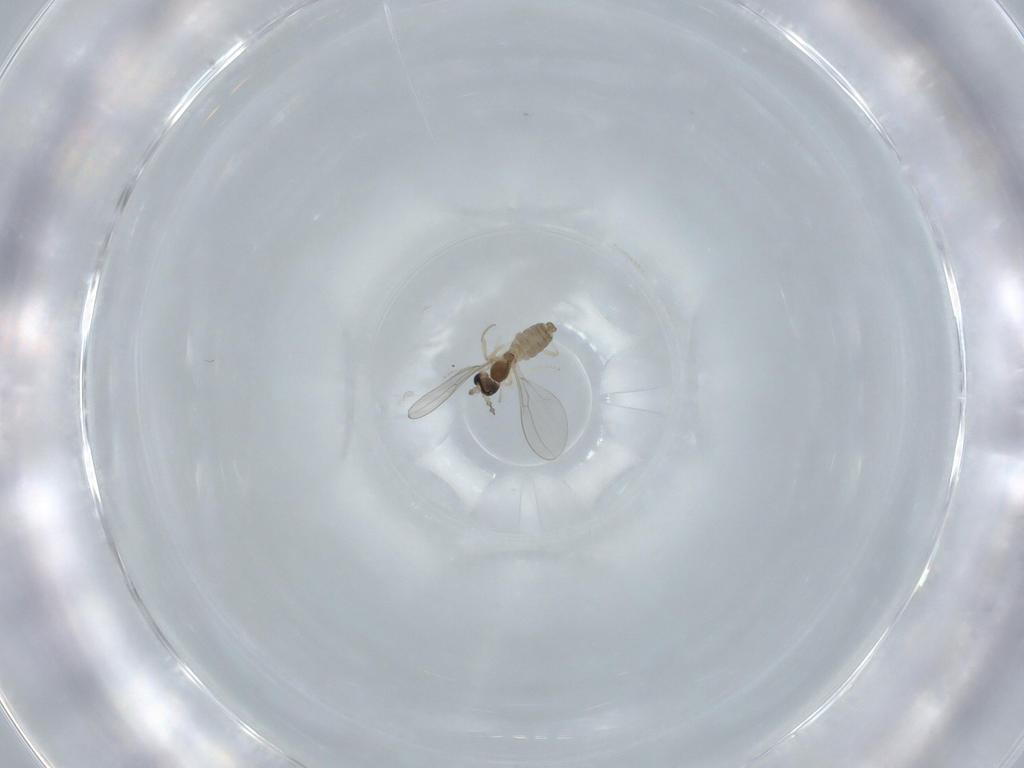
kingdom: Animalia
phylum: Arthropoda
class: Insecta
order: Diptera
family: Cecidomyiidae
